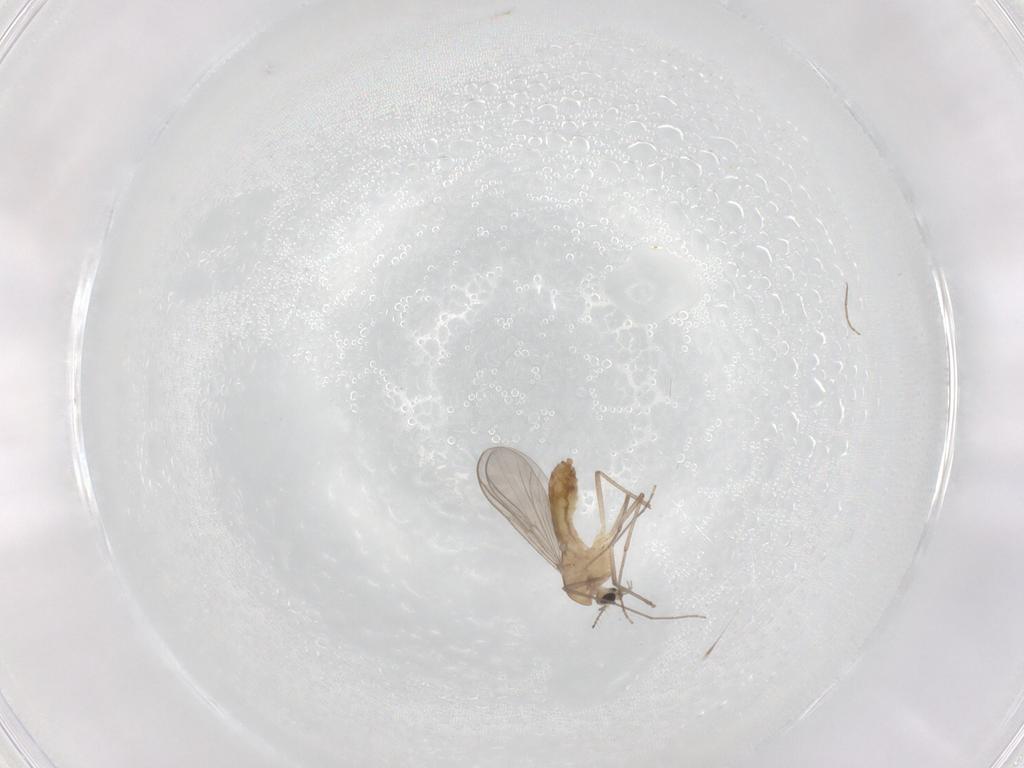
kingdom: Animalia
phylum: Arthropoda
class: Insecta
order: Diptera
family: Chironomidae
